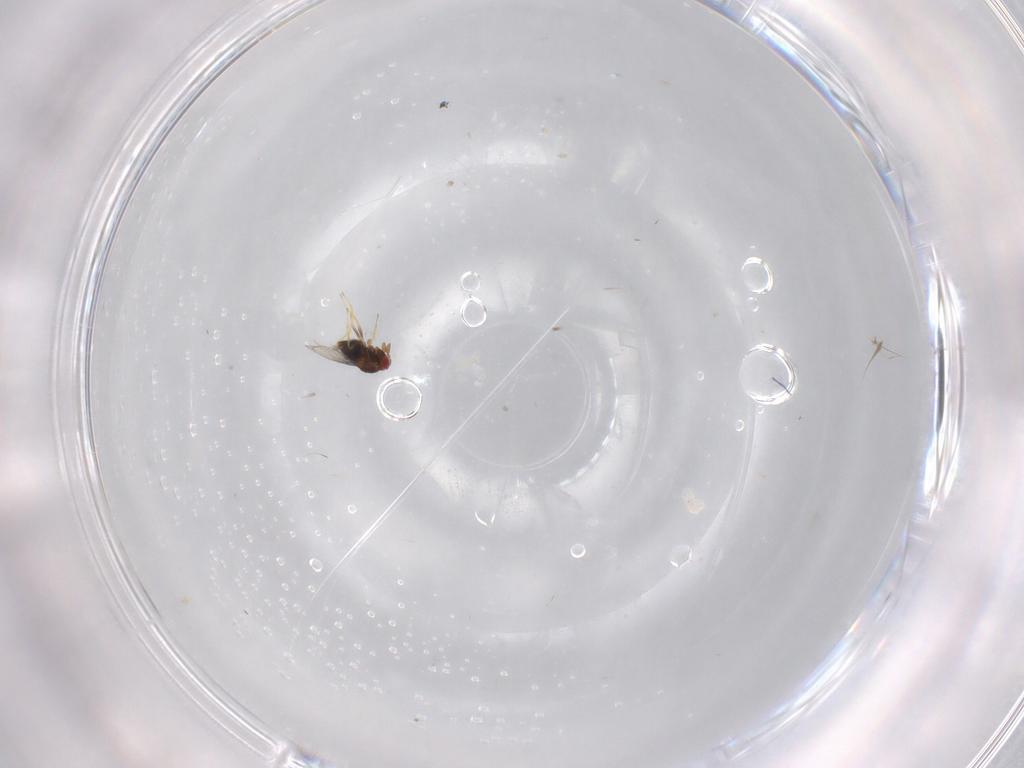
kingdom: Animalia
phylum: Arthropoda
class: Insecta
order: Hymenoptera
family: Trichogrammatidae
